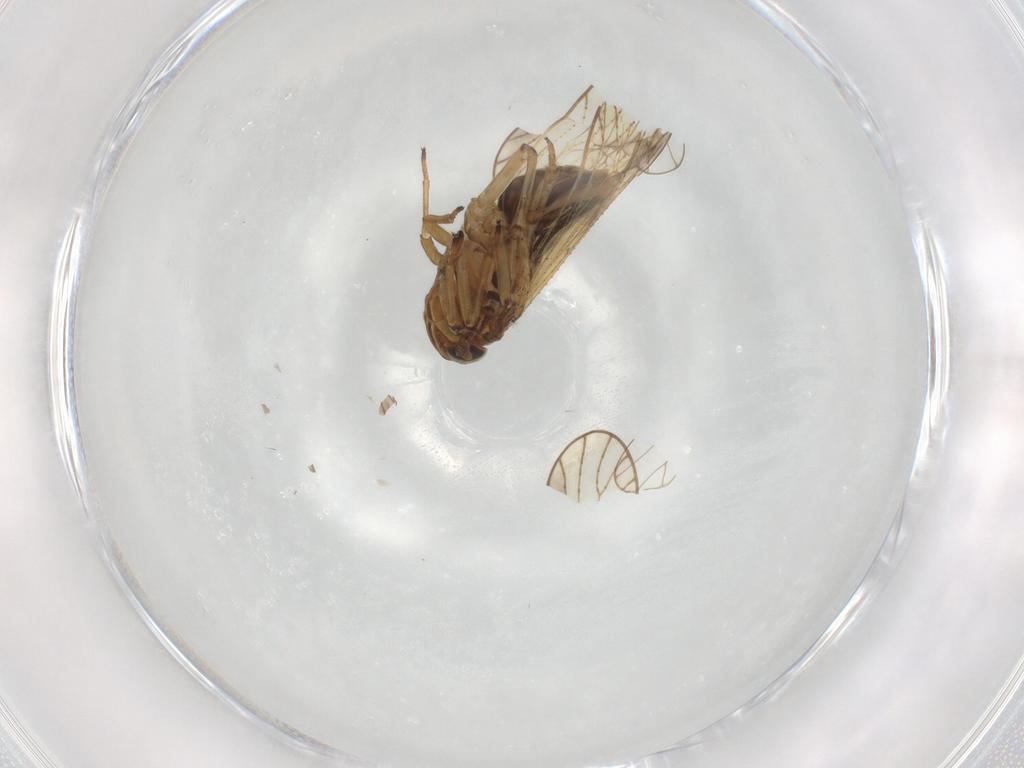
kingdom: Animalia
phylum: Arthropoda
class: Insecta
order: Hemiptera
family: Delphacidae
